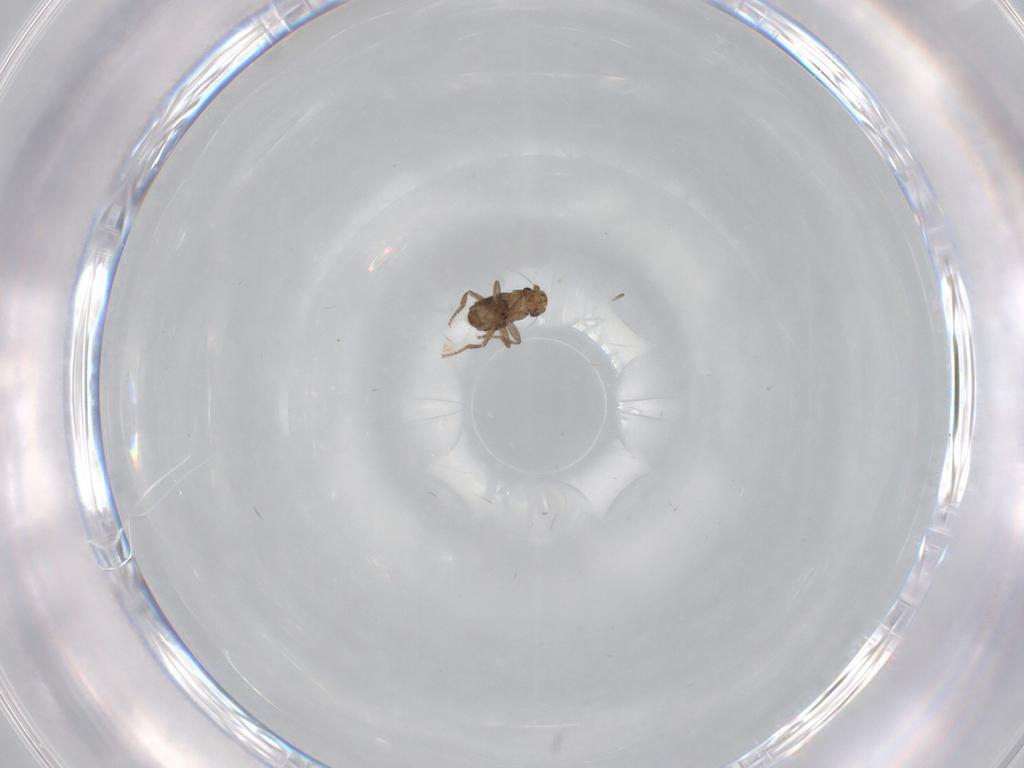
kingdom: Animalia
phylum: Arthropoda
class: Insecta
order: Diptera
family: Phoridae
